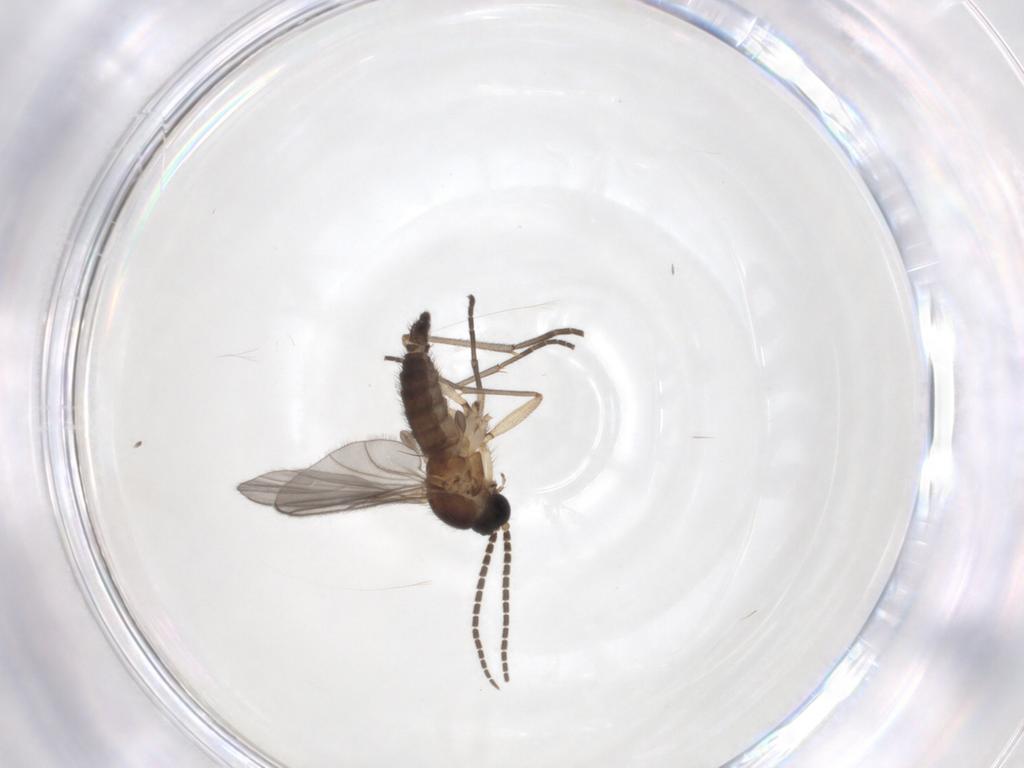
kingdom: Animalia
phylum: Arthropoda
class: Insecta
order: Diptera
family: Sciaridae
